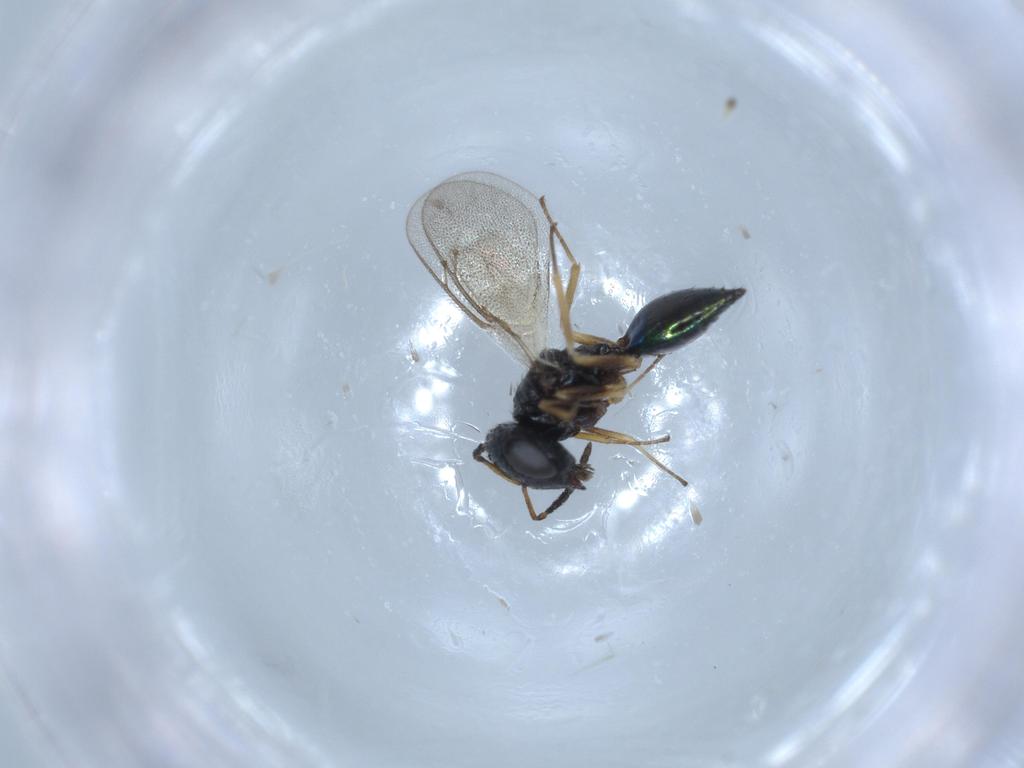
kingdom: Animalia
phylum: Arthropoda
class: Insecta
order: Hymenoptera
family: Pteromalidae
